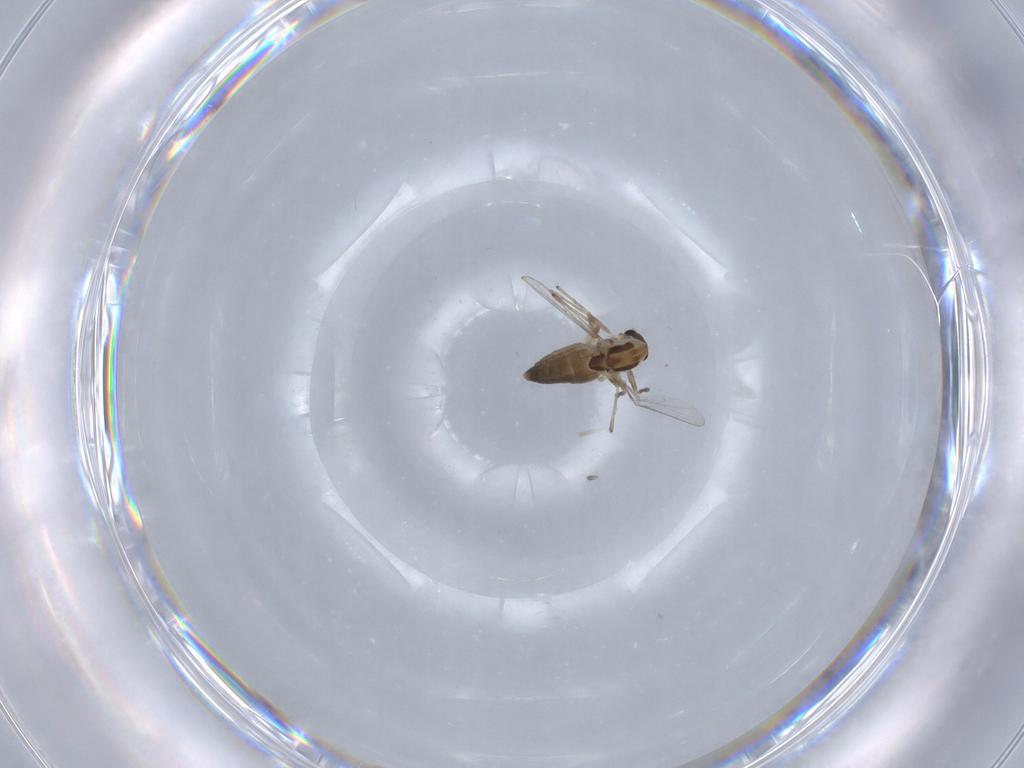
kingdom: Animalia
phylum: Arthropoda
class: Insecta
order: Diptera
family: Chironomidae
